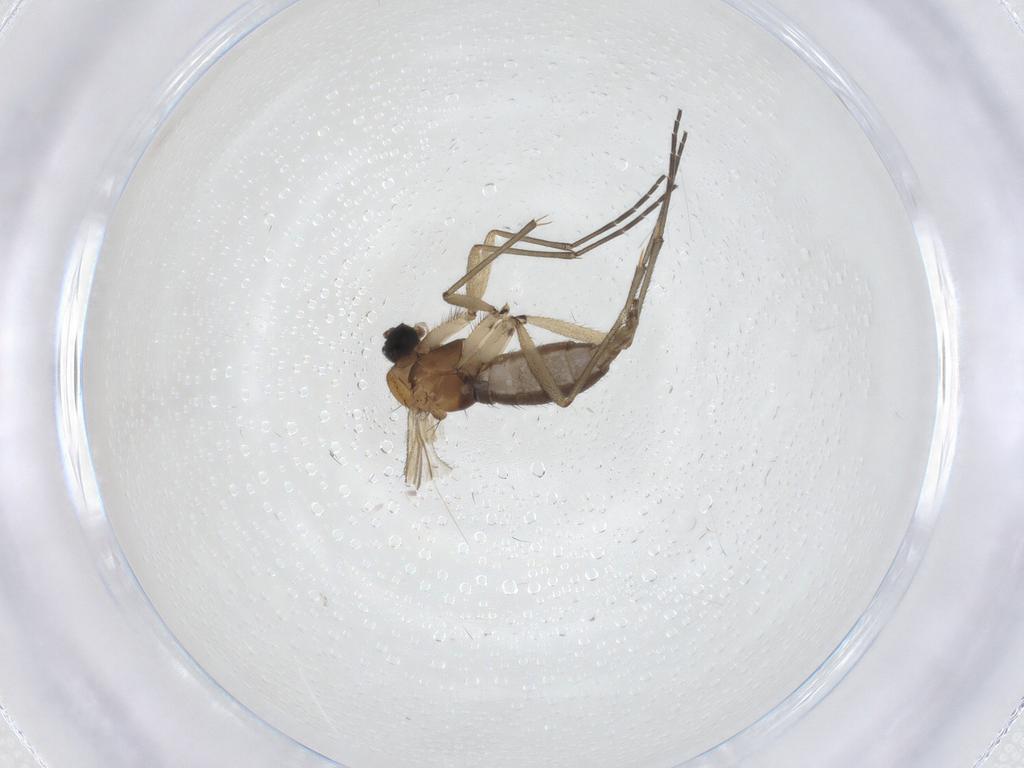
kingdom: Animalia
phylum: Arthropoda
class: Insecta
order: Diptera
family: Sciaridae
